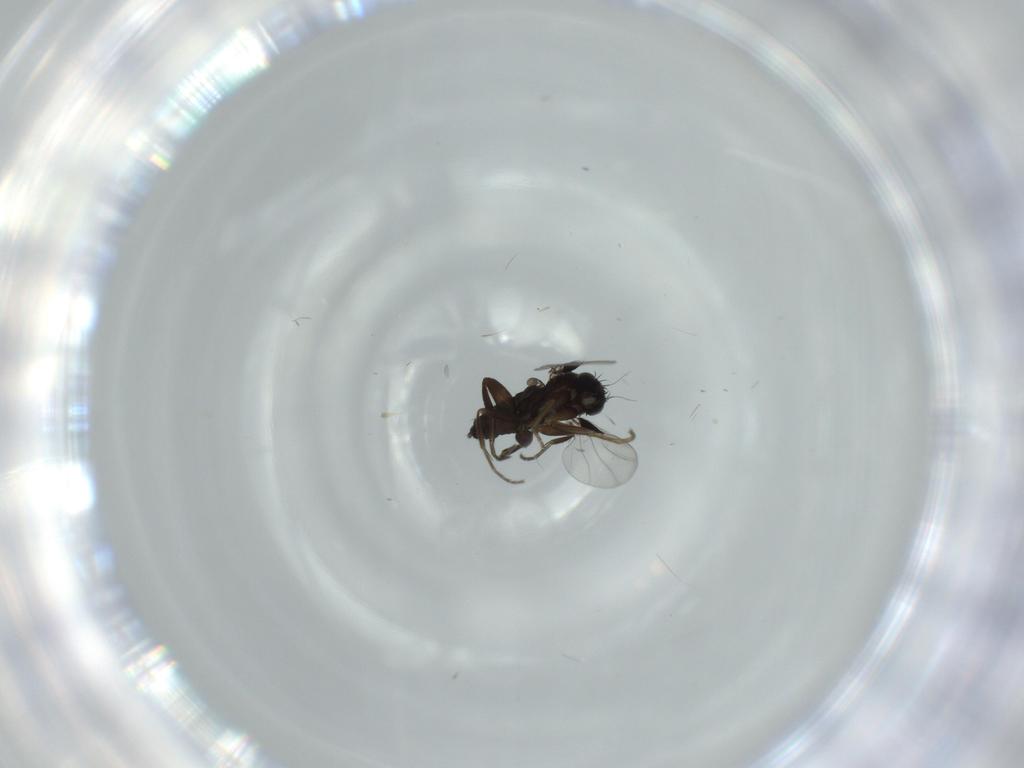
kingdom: Animalia
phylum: Arthropoda
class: Insecta
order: Diptera
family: Phoridae
